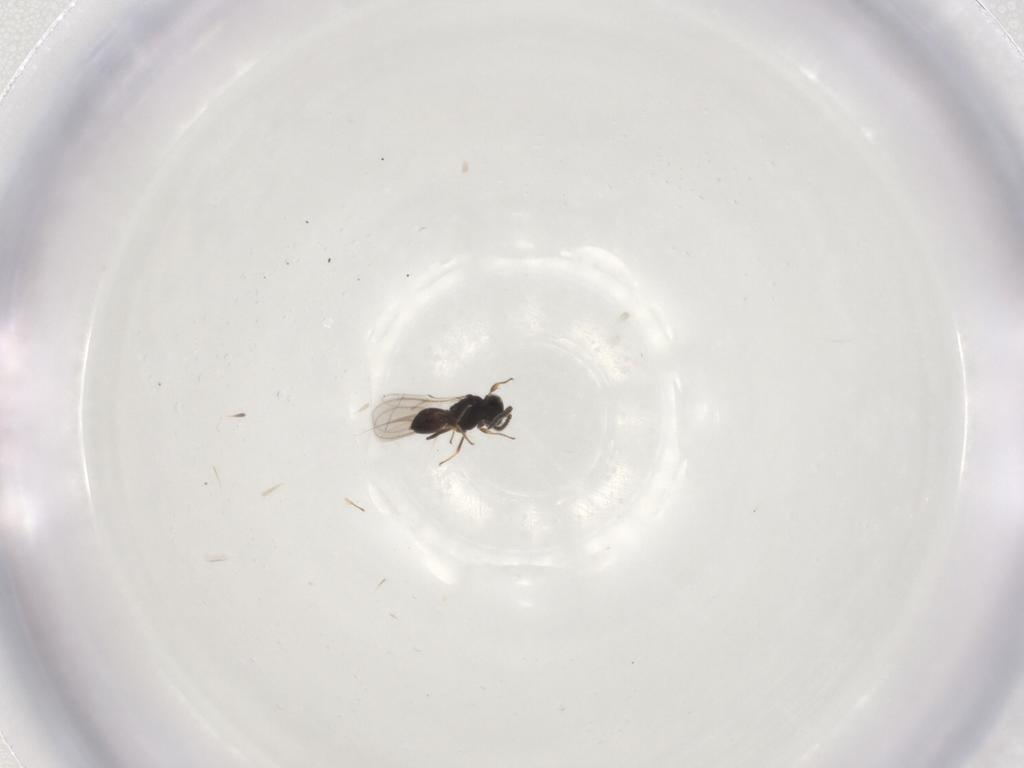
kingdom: Animalia
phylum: Arthropoda
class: Insecta
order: Hymenoptera
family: Scelionidae
